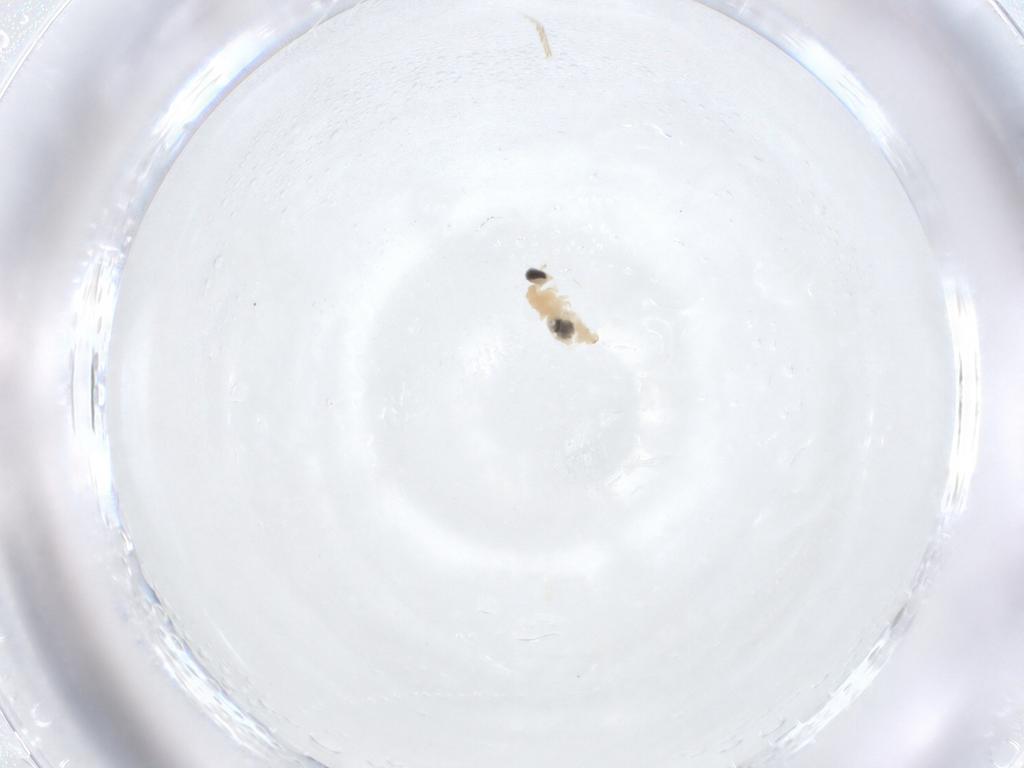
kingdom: Animalia
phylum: Arthropoda
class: Insecta
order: Diptera
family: Cecidomyiidae
